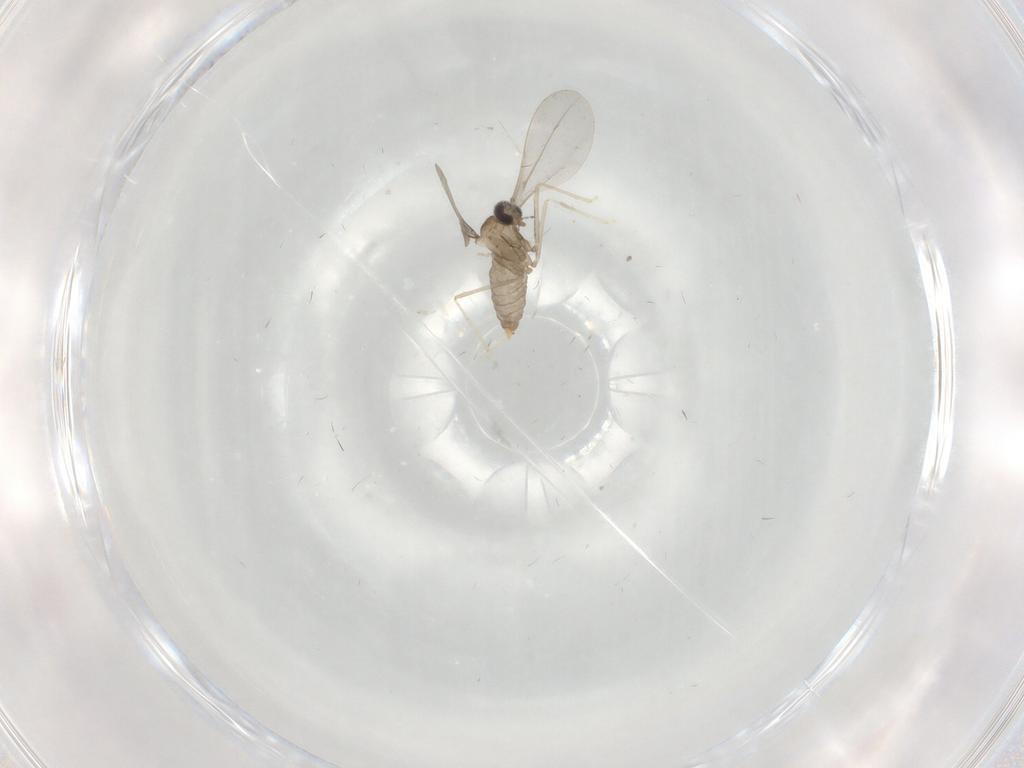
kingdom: Animalia
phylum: Arthropoda
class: Insecta
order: Diptera
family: Cecidomyiidae
